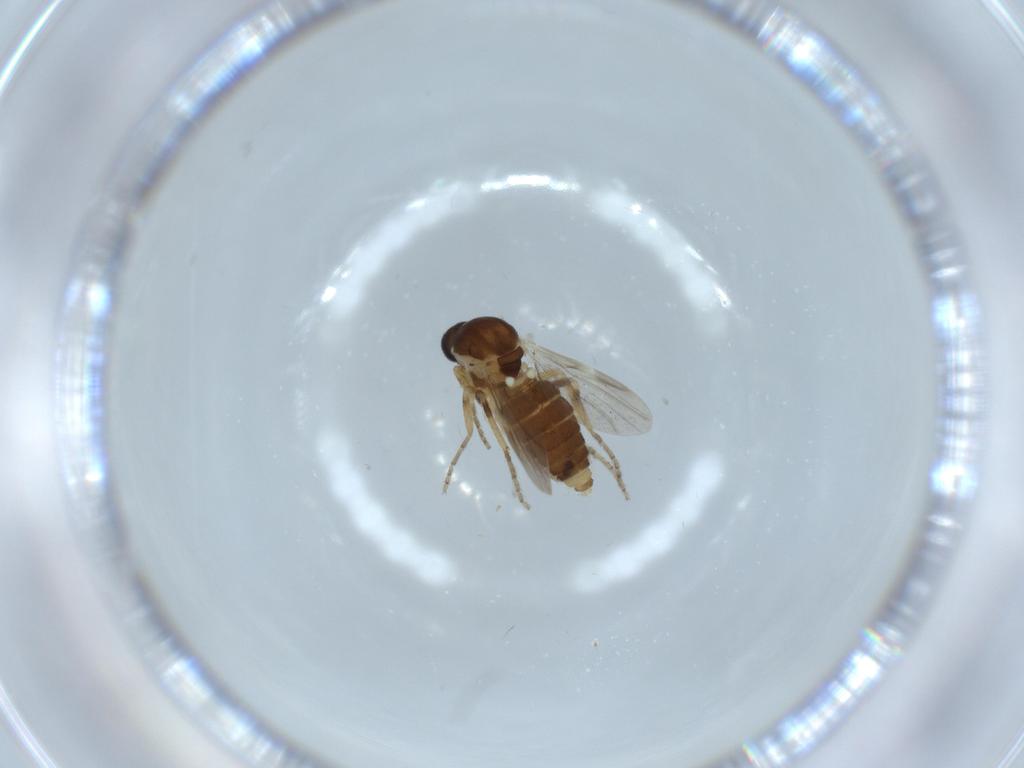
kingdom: Animalia
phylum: Arthropoda
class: Insecta
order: Diptera
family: Ceratopogonidae
